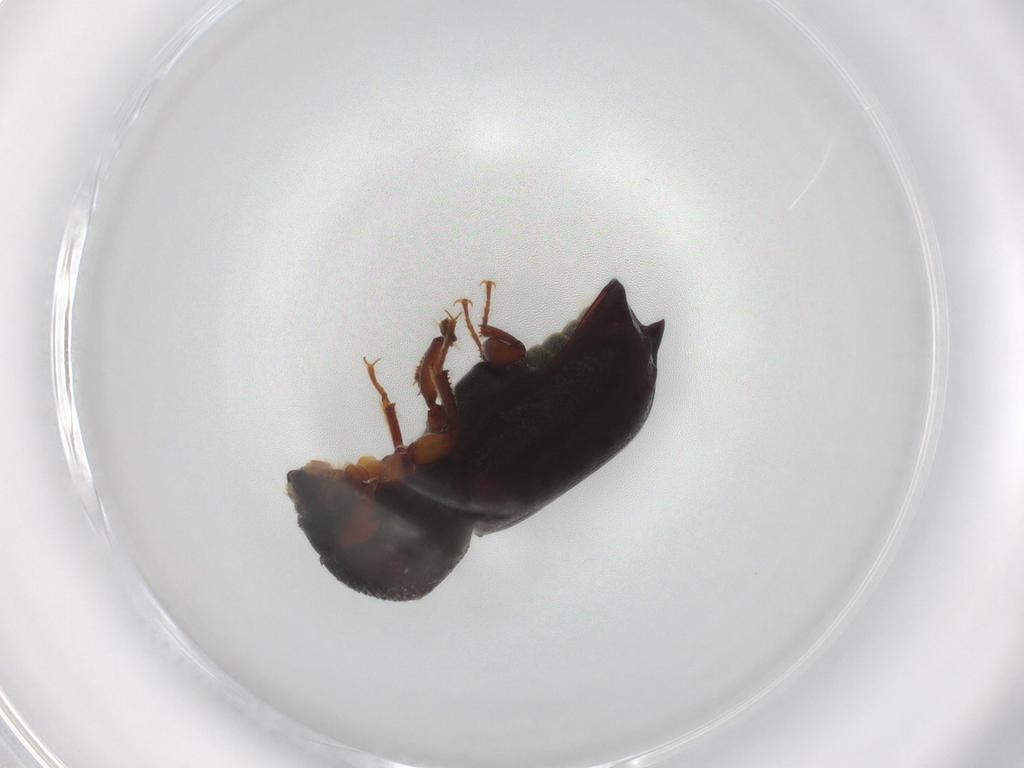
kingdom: Animalia
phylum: Arthropoda
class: Insecta
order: Coleoptera
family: Bostrichidae
